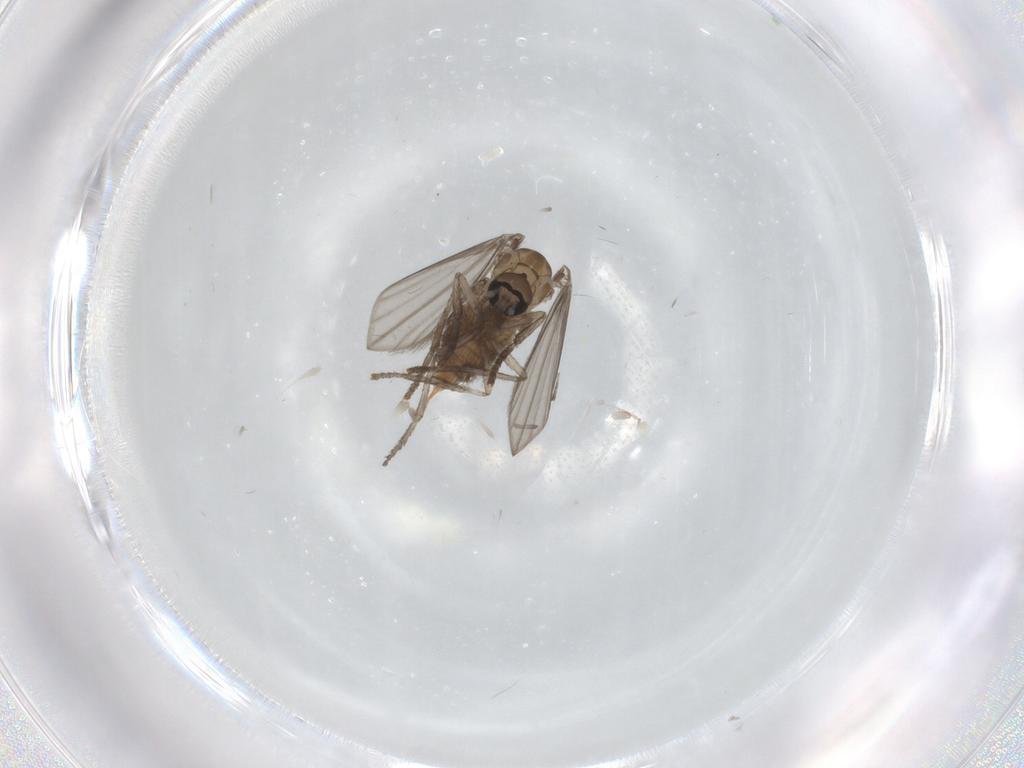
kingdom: Animalia
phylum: Arthropoda
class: Insecta
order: Diptera
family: Psychodidae
